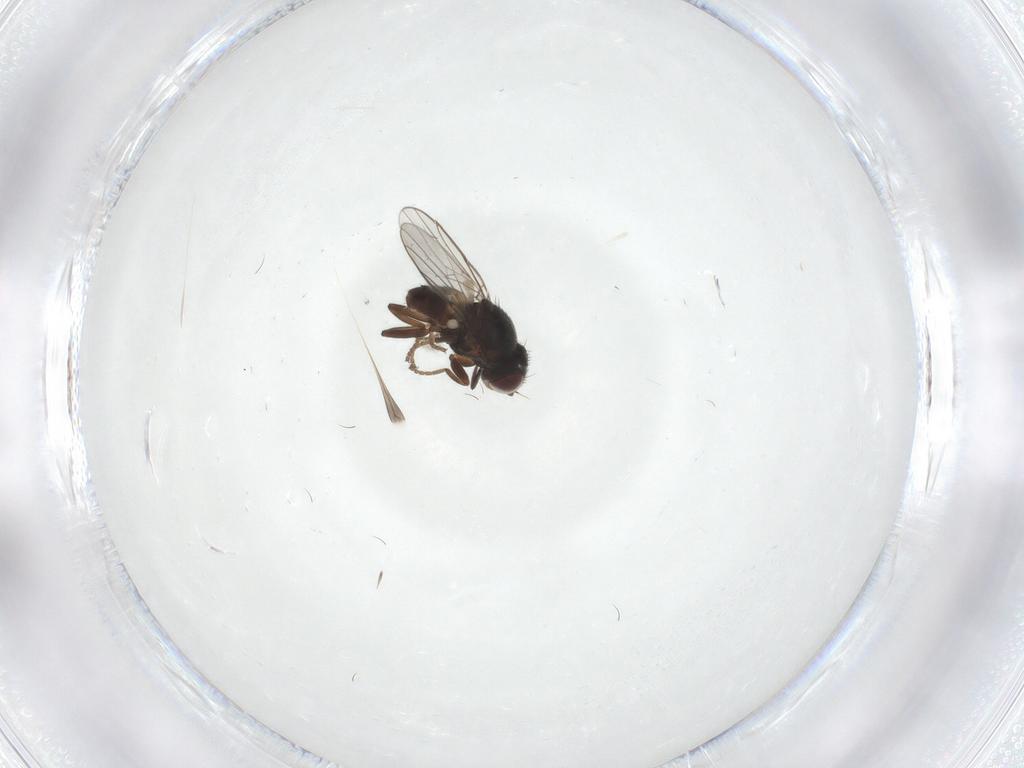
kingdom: Animalia
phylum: Arthropoda
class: Insecta
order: Diptera
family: Chloropidae
